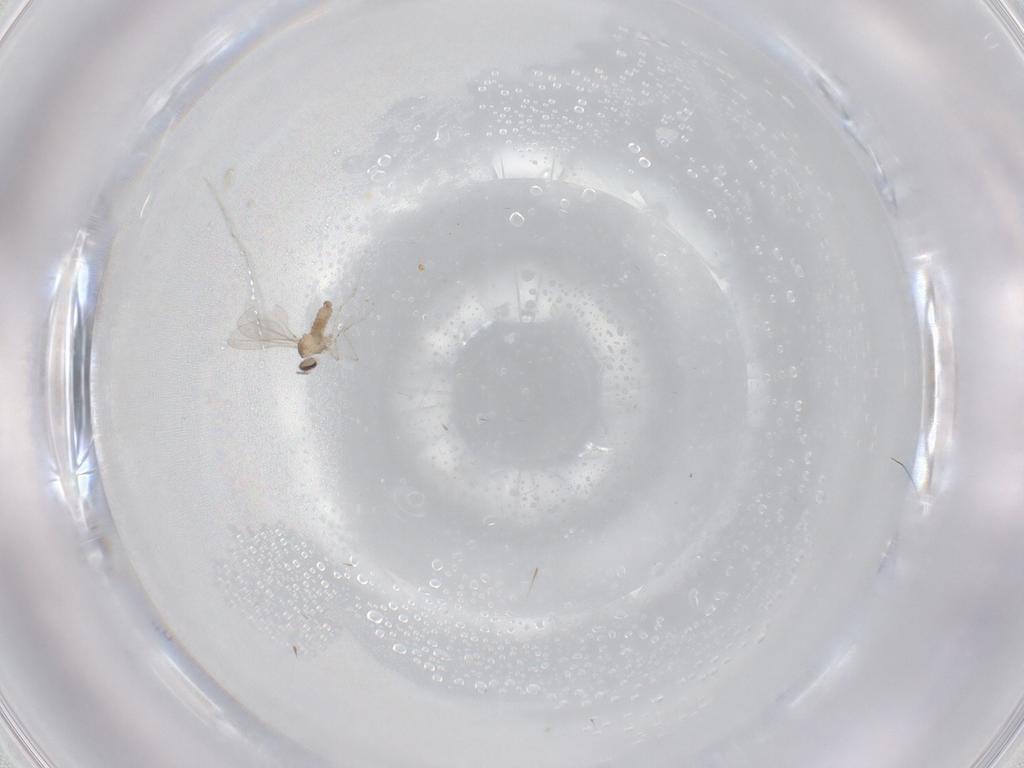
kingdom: Animalia
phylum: Arthropoda
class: Insecta
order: Diptera
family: Cecidomyiidae
